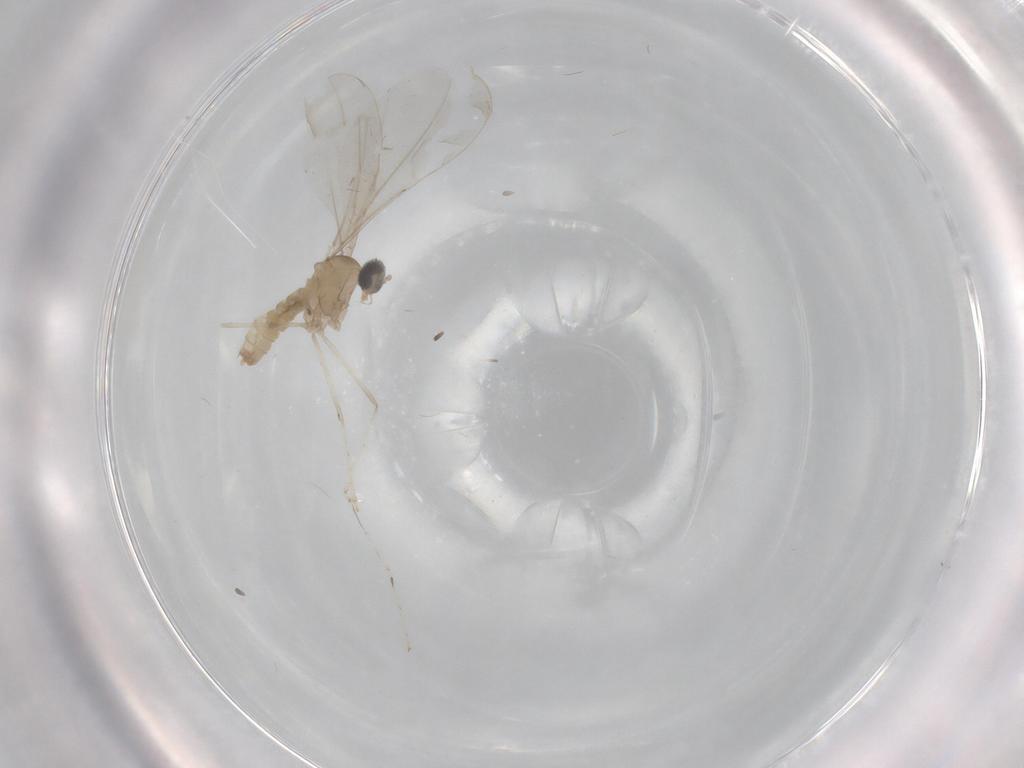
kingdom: Animalia
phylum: Arthropoda
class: Insecta
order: Diptera
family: Cecidomyiidae
